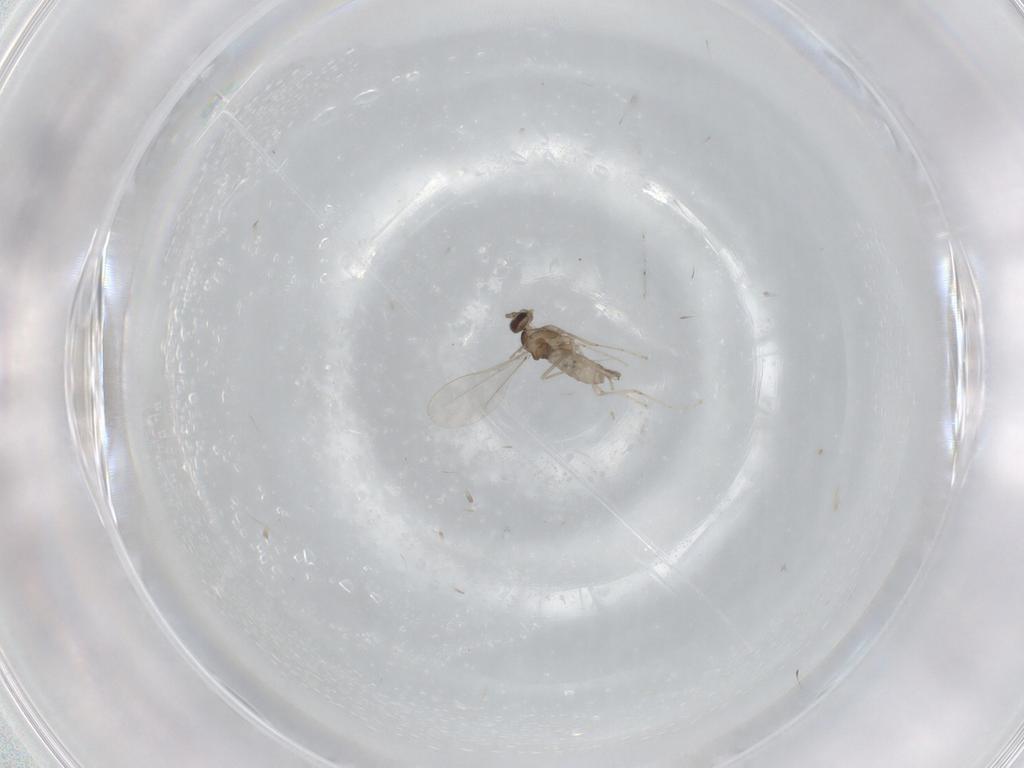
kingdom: Animalia
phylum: Arthropoda
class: Insecta
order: Diptera
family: Cecidomyiidae
